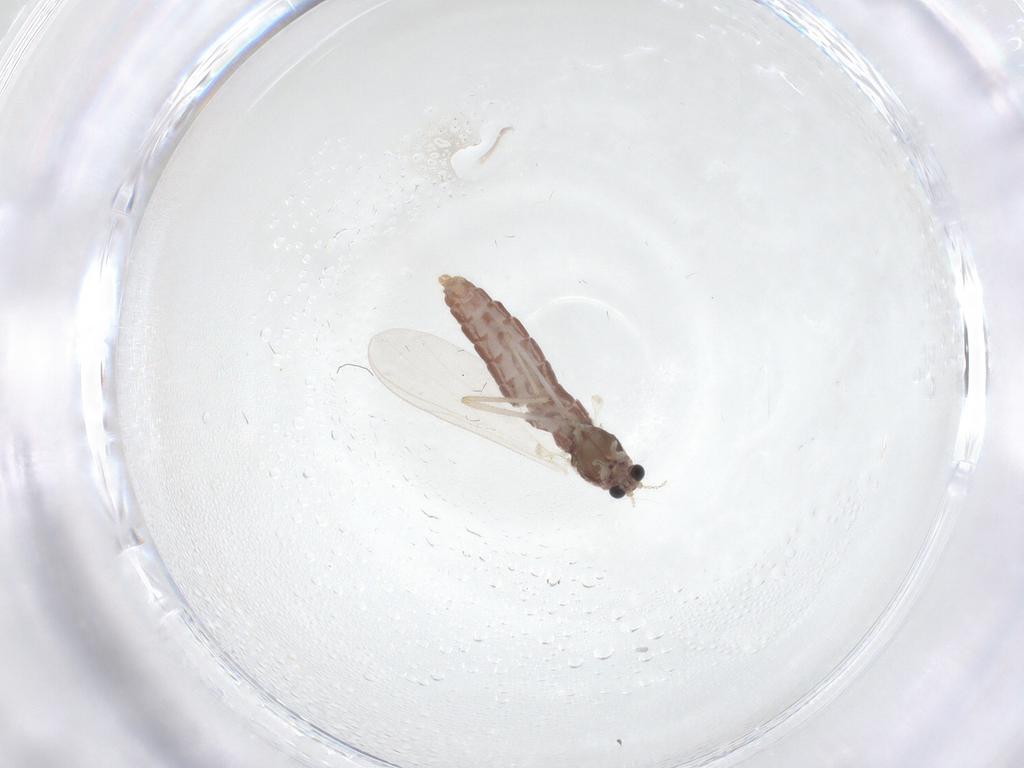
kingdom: Animalia
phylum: Arthropoda
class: Insecta
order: Diptera
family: Chironomidae
